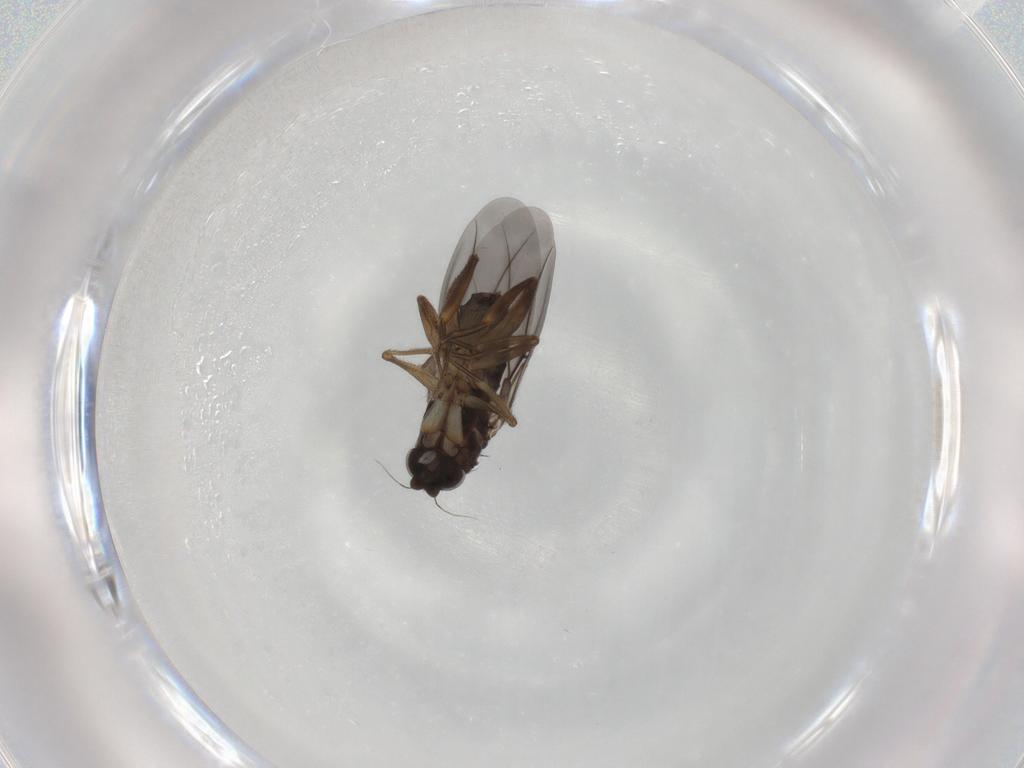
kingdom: Animalia
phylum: Arthropoda
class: Insecta
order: Diptera
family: Phoridae
